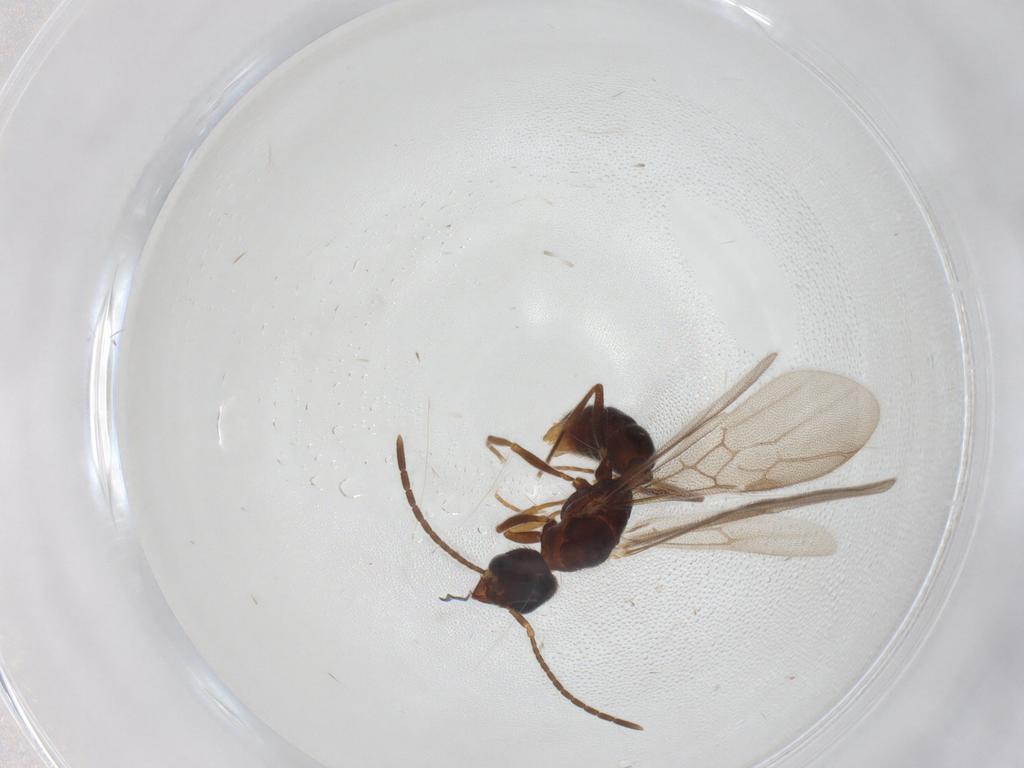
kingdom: Animalia
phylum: Arthropoda
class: Insecta
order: Hymenoptera
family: Formicidae
